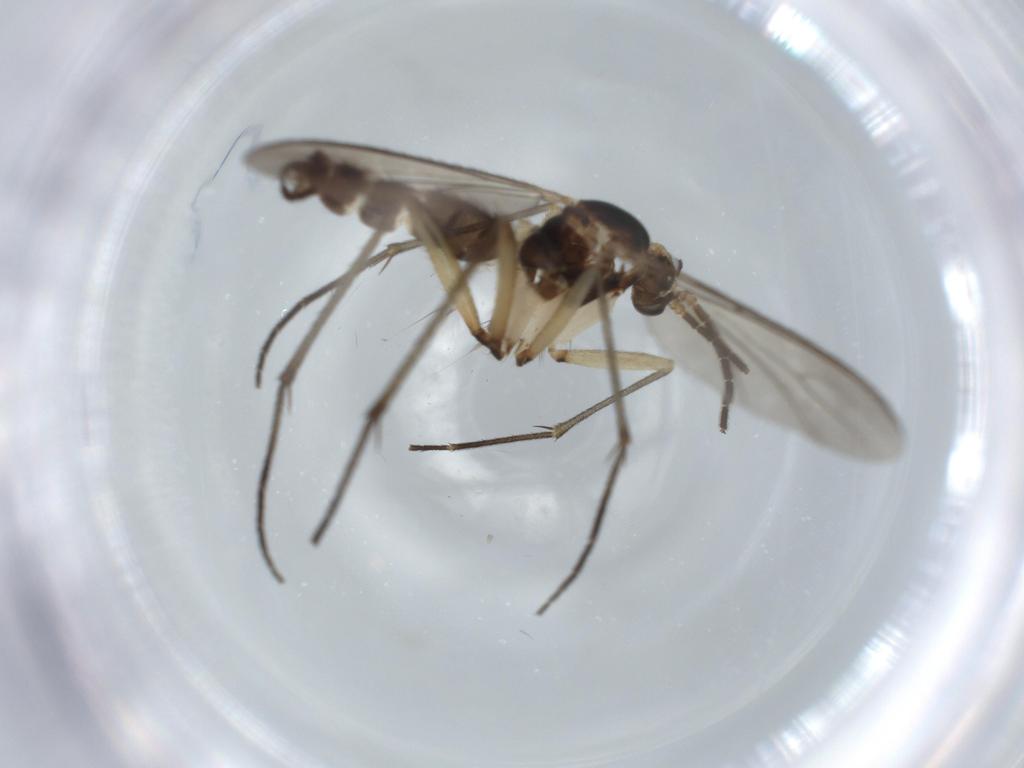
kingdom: Animalia
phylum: Arthropoda
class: Insecta
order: Diptera
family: Sciaridae
